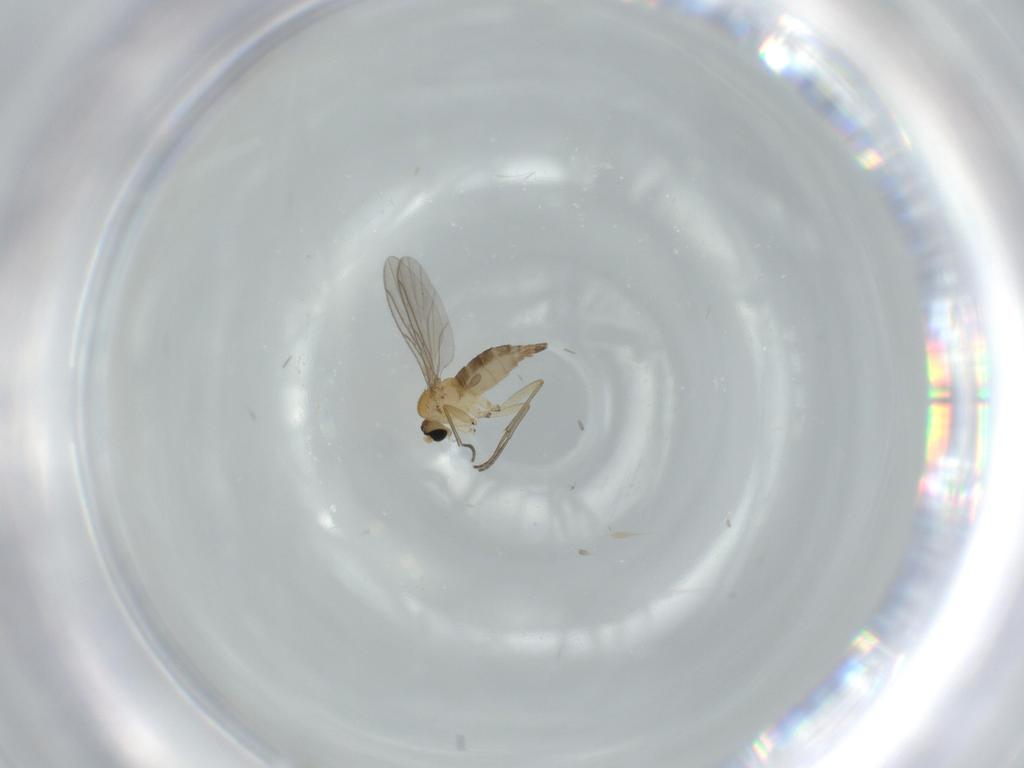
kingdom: Animalia
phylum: Arthropoda
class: Insecta
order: Diptera
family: Sciaridae
